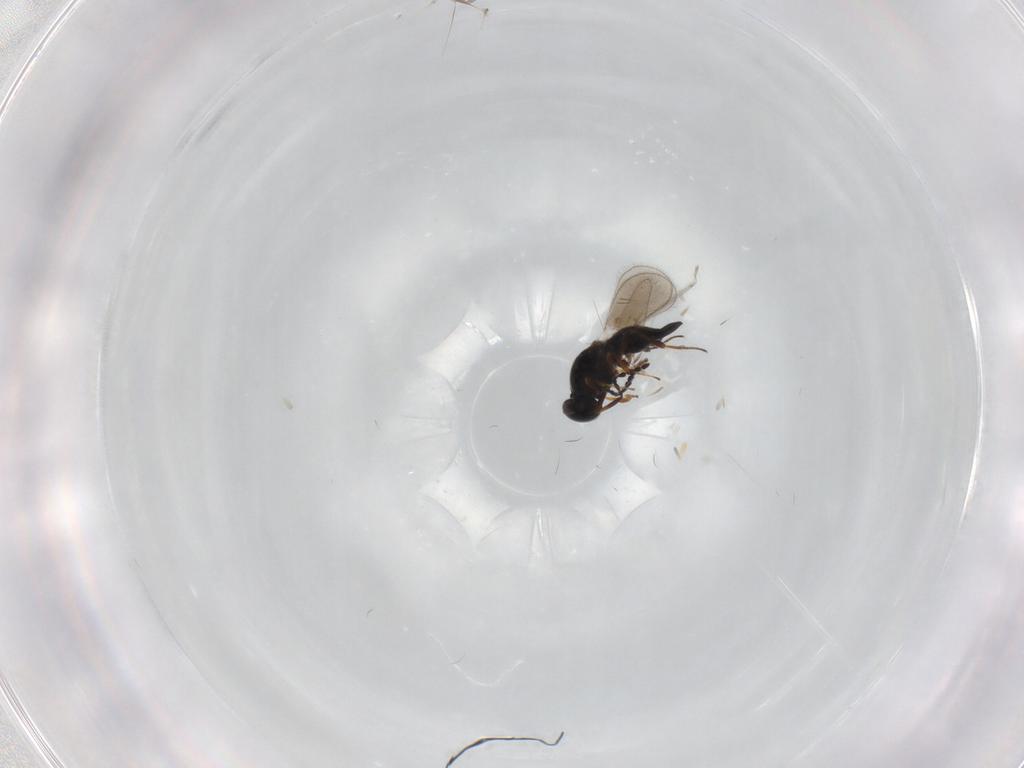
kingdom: Animalia
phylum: Arthropoda
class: Insecta
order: Hymenoptera
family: Platygastridae
